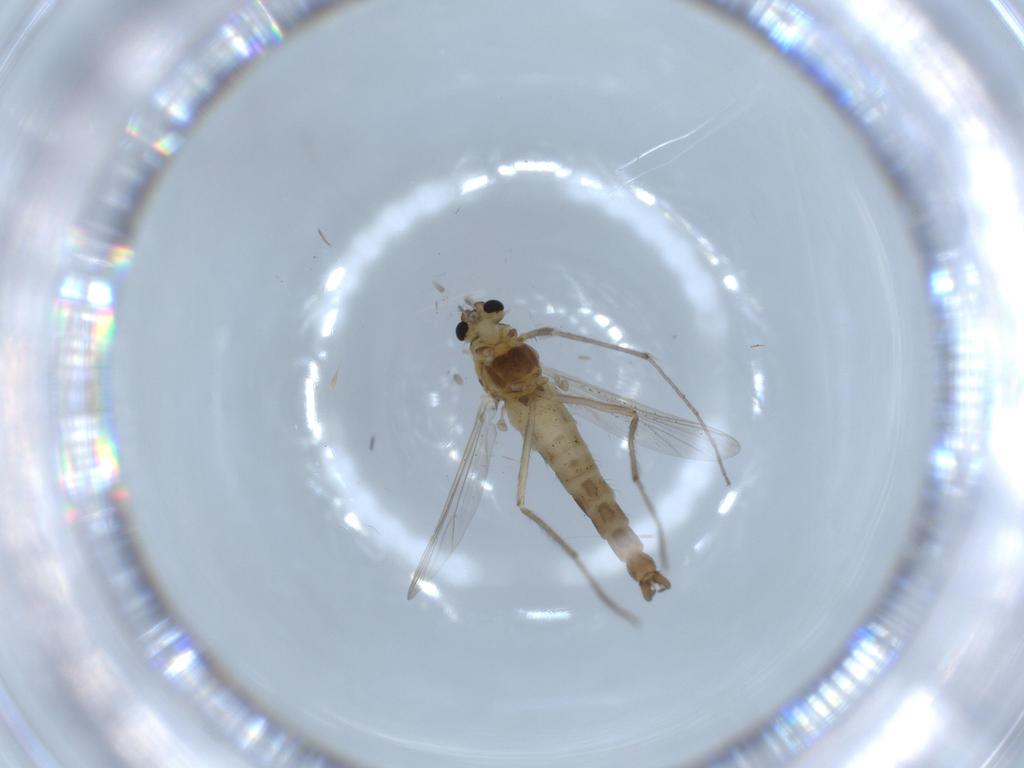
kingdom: Animalia
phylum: Arthropoda
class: Insecta
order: Diptera
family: Chironomidae
